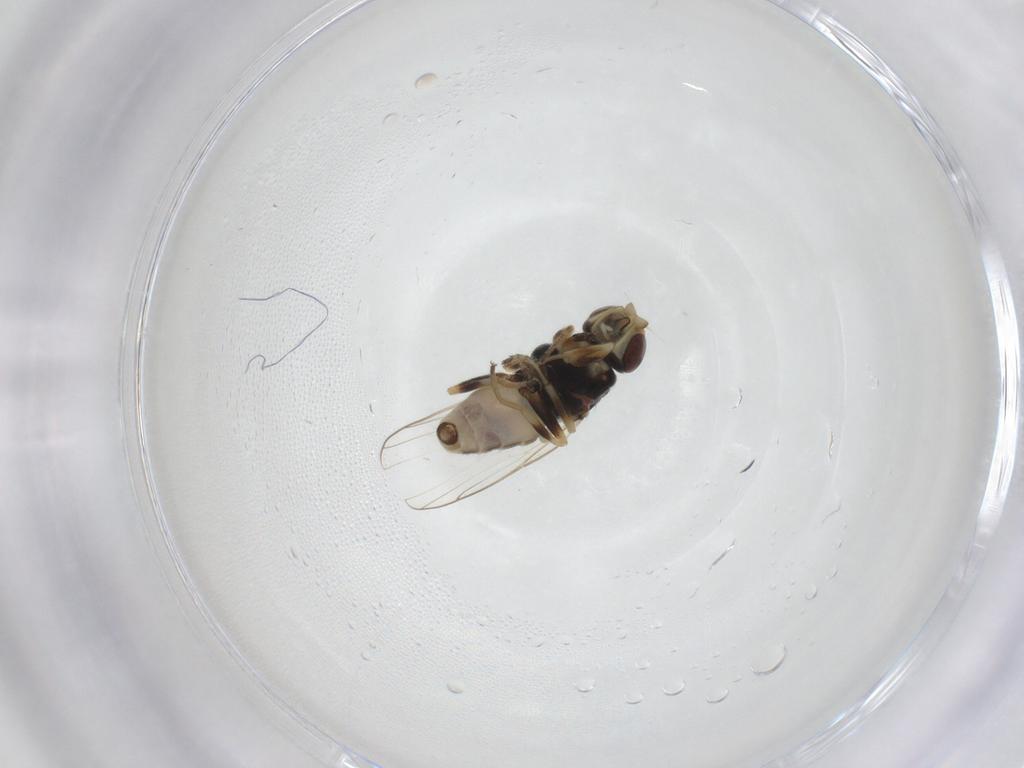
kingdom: Animalia
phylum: Arthropoda
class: Insecta
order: Diptera
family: Chloropidae
